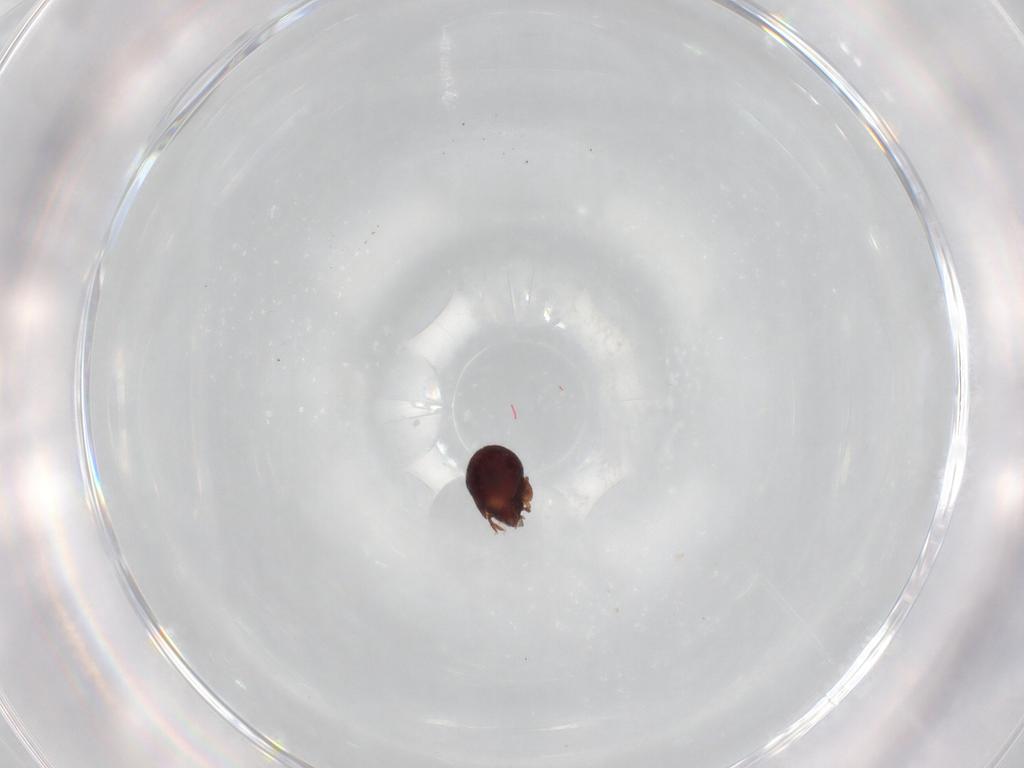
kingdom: Animalia
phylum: Arthropoda
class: Arachnida
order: Sarcoptiformes
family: Humerobatidae
